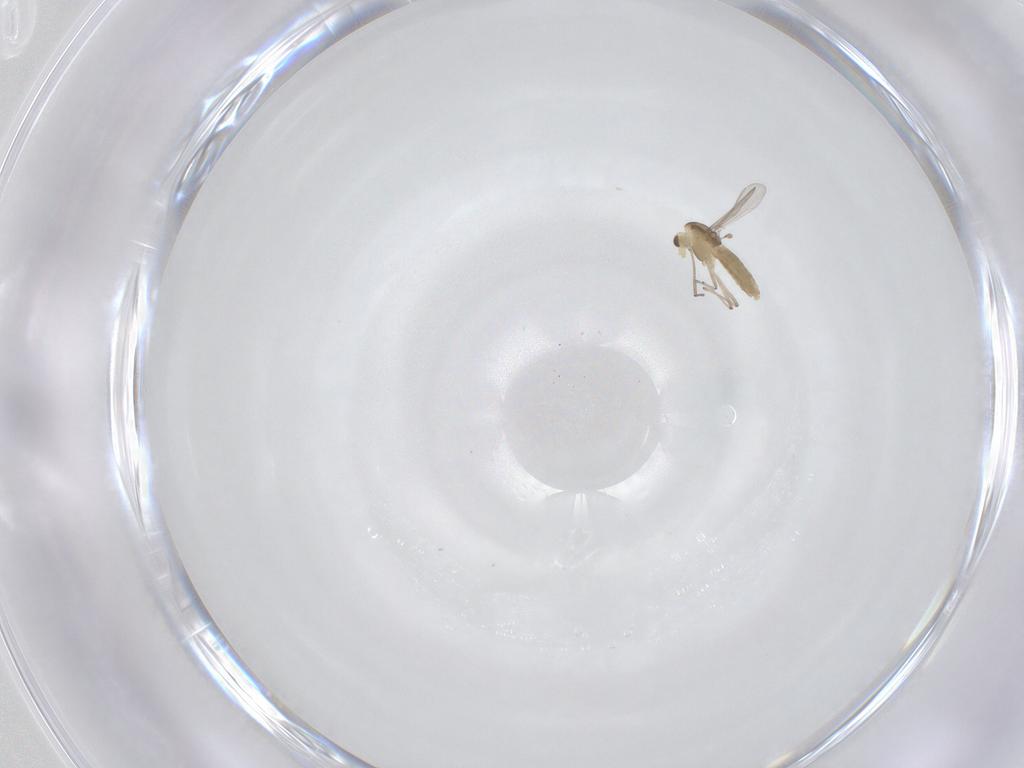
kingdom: Animalia
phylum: Arthropoda
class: Insecta
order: Diptera
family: Chironomidae
